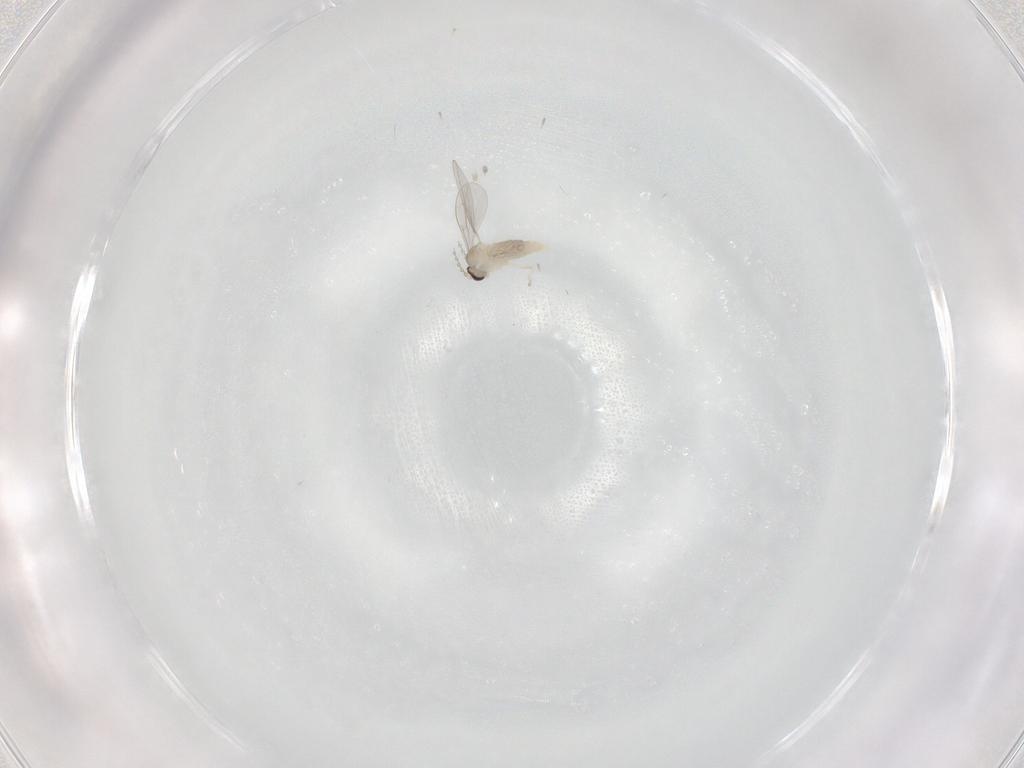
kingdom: Animalia
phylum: Arthropoda
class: Insecta
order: Diptera
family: Cecidomyiidae
